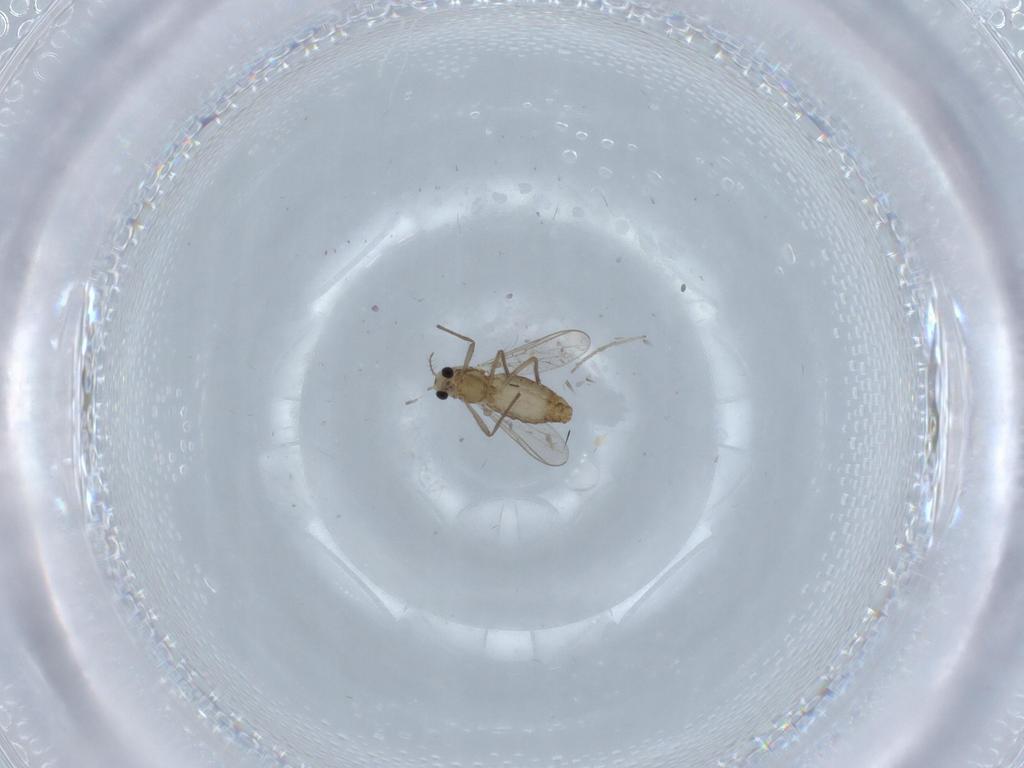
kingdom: Animalia
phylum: Arthropoda
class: Insecta
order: Diptera
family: Chironomidae
